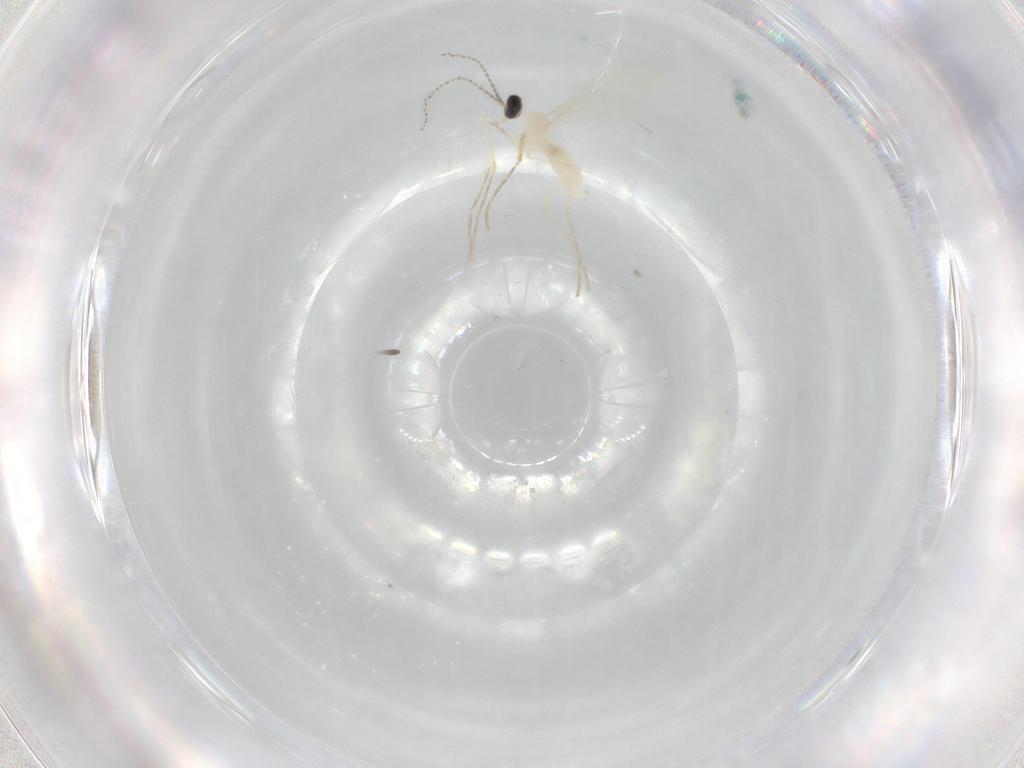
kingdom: Animalia
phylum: Arthropoda
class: Insecta
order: Diptera
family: Cecidomyiidae
